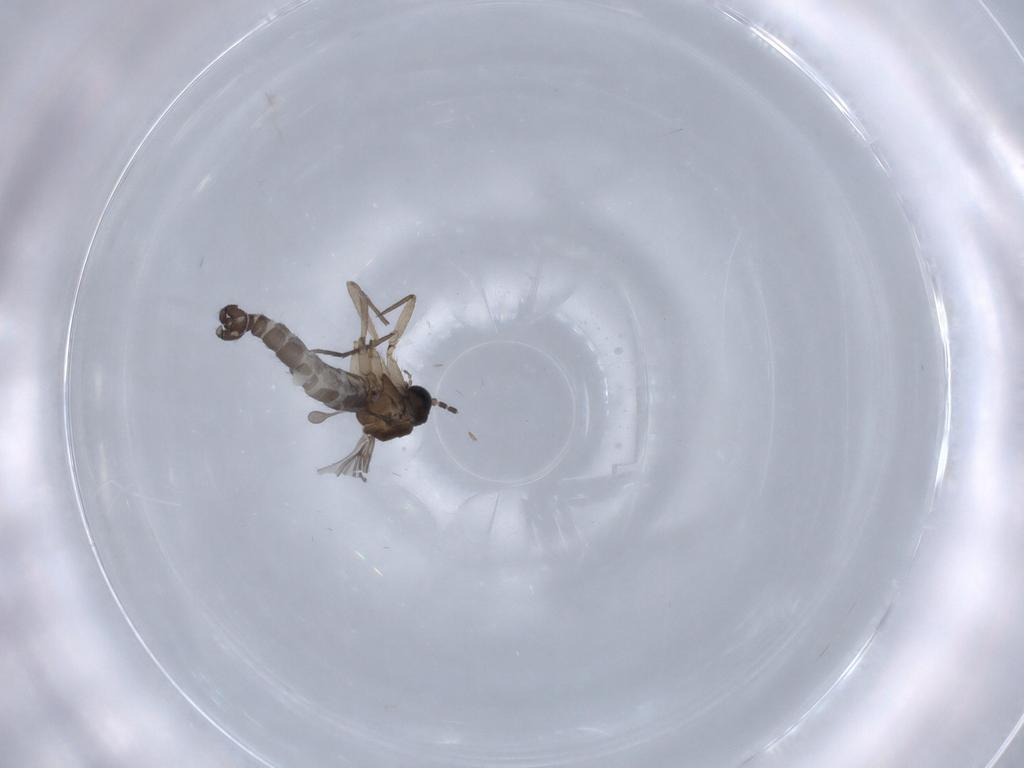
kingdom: Animalia
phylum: Arthropoda
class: Insecta
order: Diptera
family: Sciaridae
